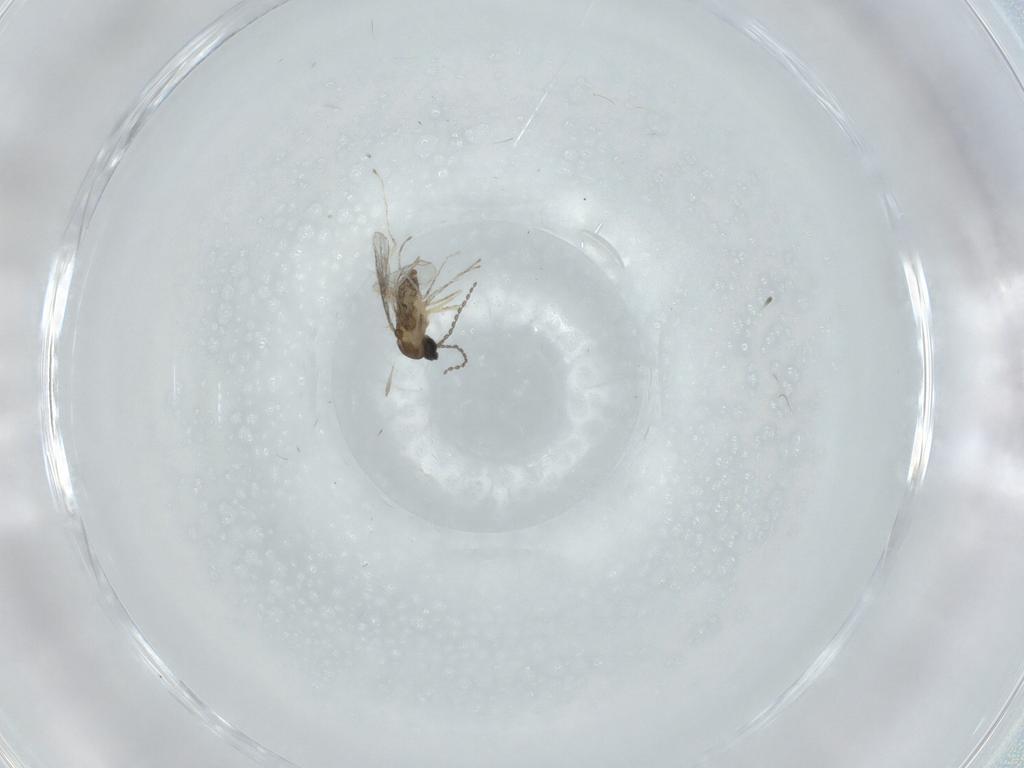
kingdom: Animalia
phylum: Arthropoda
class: Insecta
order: Diptera
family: Cecidomyiidae
